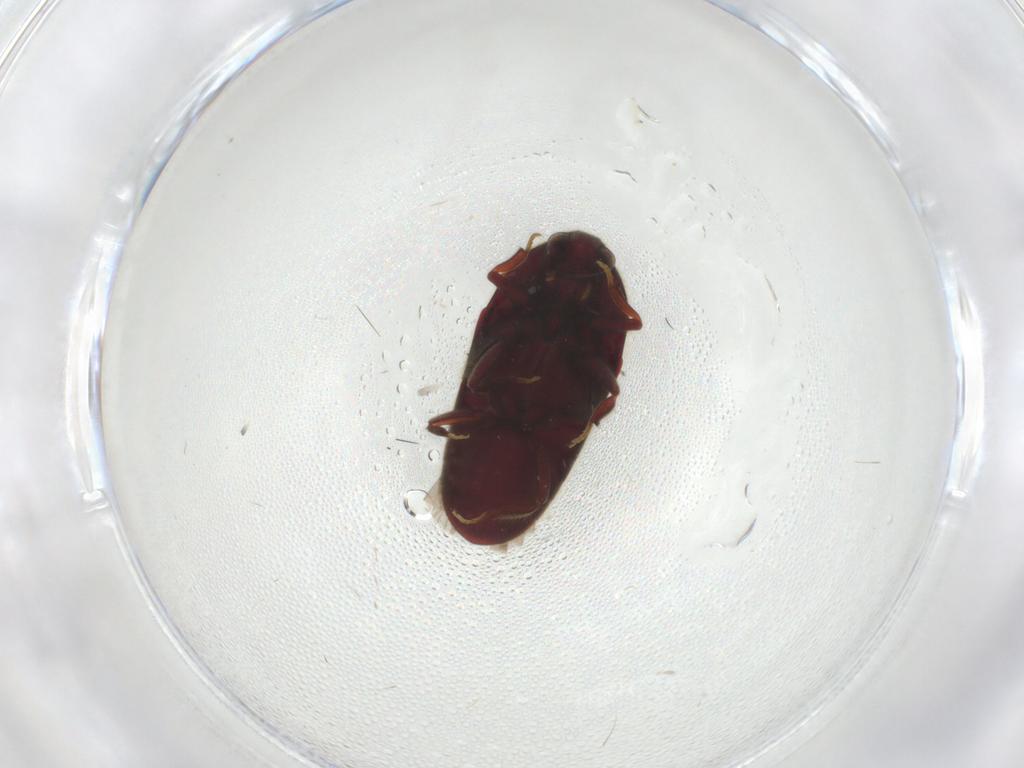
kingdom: Animalia
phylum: Arthropoda
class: Insecta
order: Coleoptera
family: Throscidae
